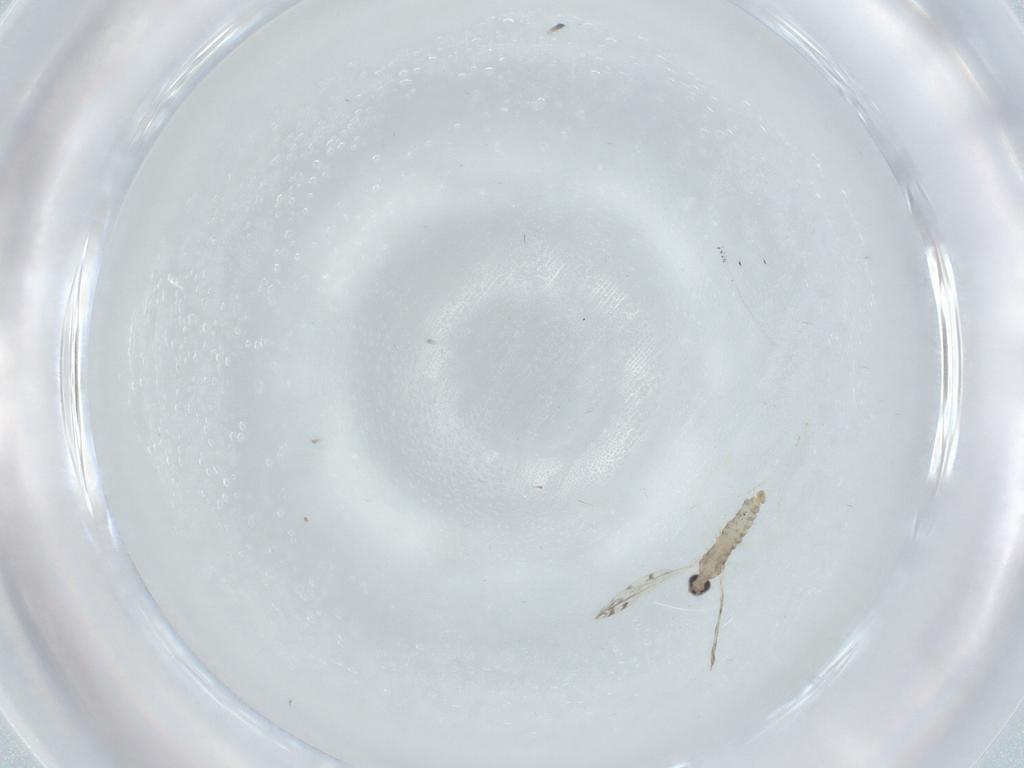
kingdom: Animalia
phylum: Arthropoda
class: Insecta
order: Diptera
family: Cecidomyiidae
